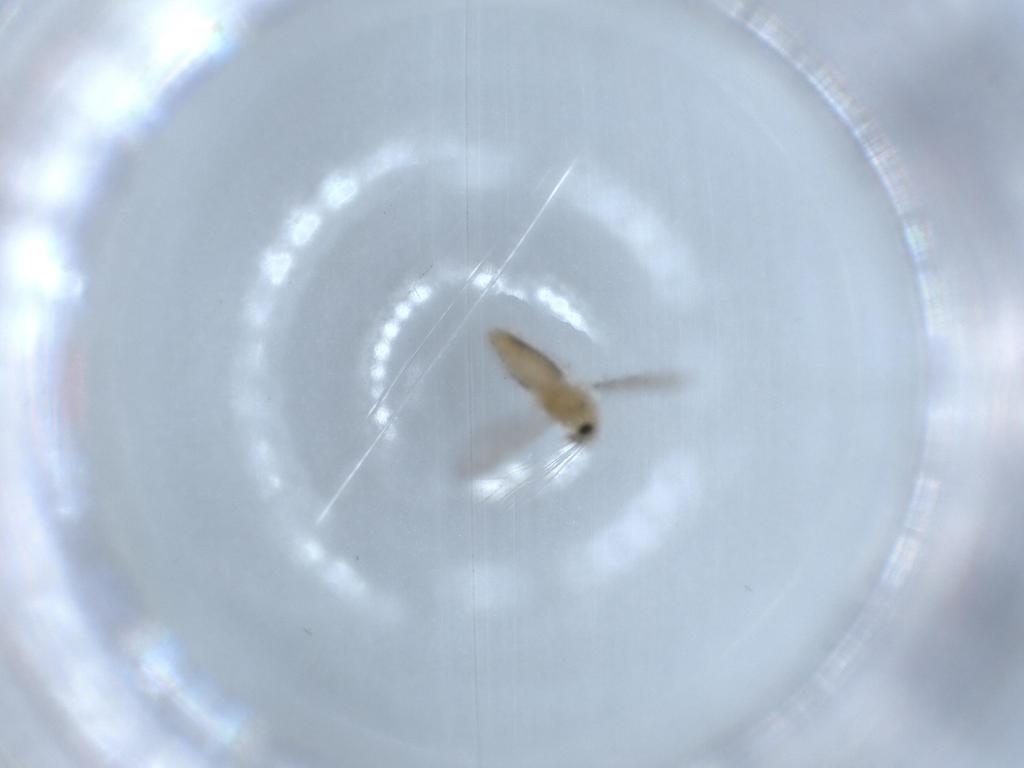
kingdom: Animalia
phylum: Arthropoda
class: Insecta
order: Diptera
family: Chironomidae
